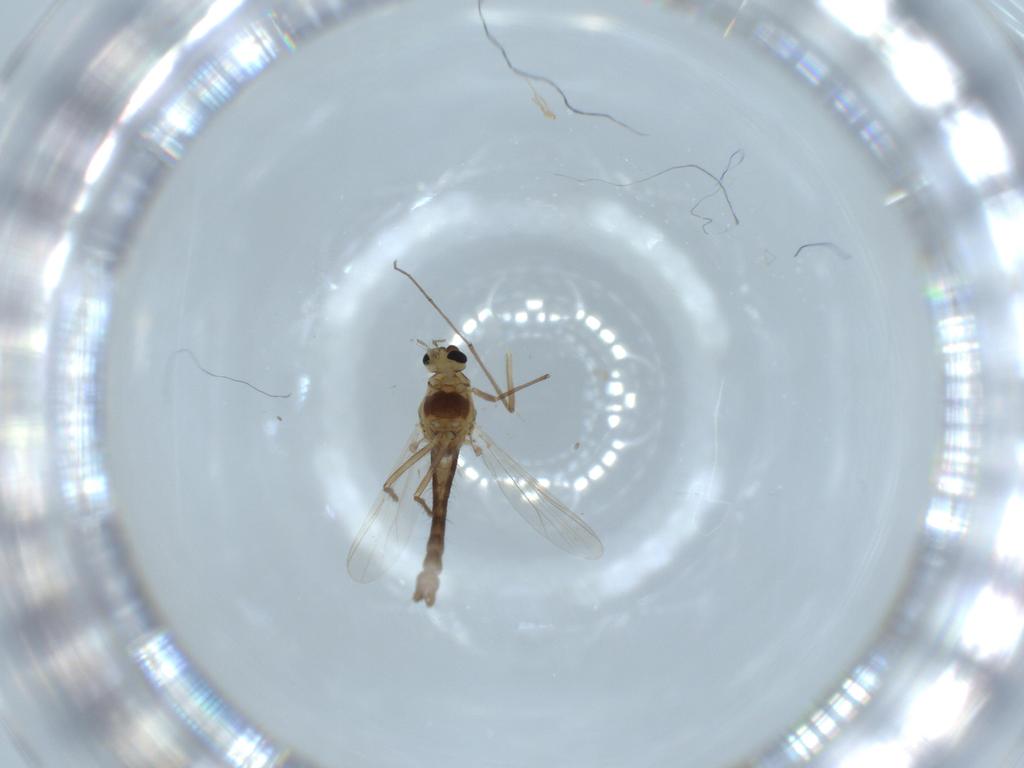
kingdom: Animalia
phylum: Arthropoda
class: Insecta
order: Diptera
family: Chironomidae
